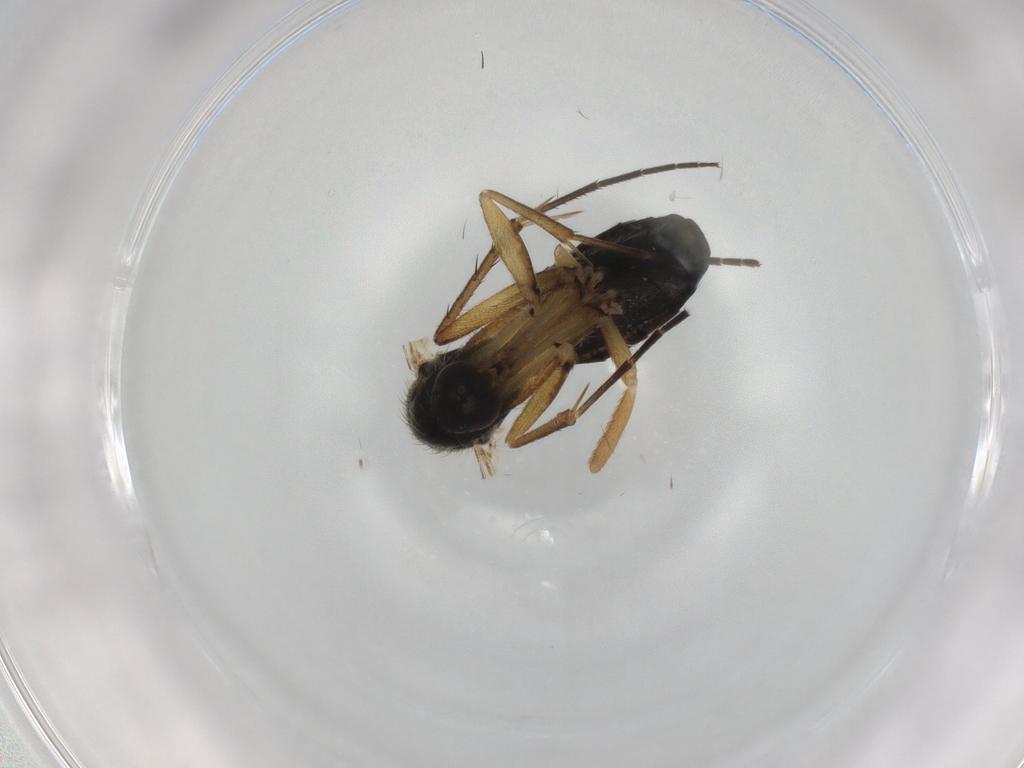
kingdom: Animalia
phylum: Arthropoda
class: Insecta
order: Diptera
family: Mycetophilidae
